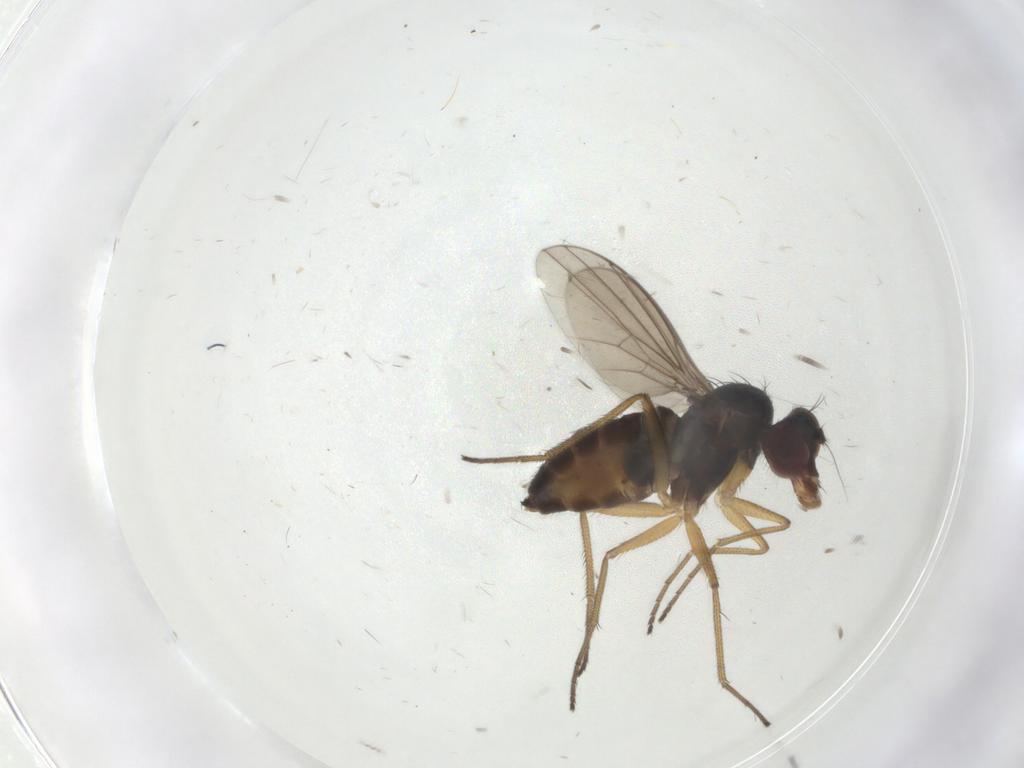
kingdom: Animalia
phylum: Arthropoda
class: Insecta
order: Diptera
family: Dolichopodidae
